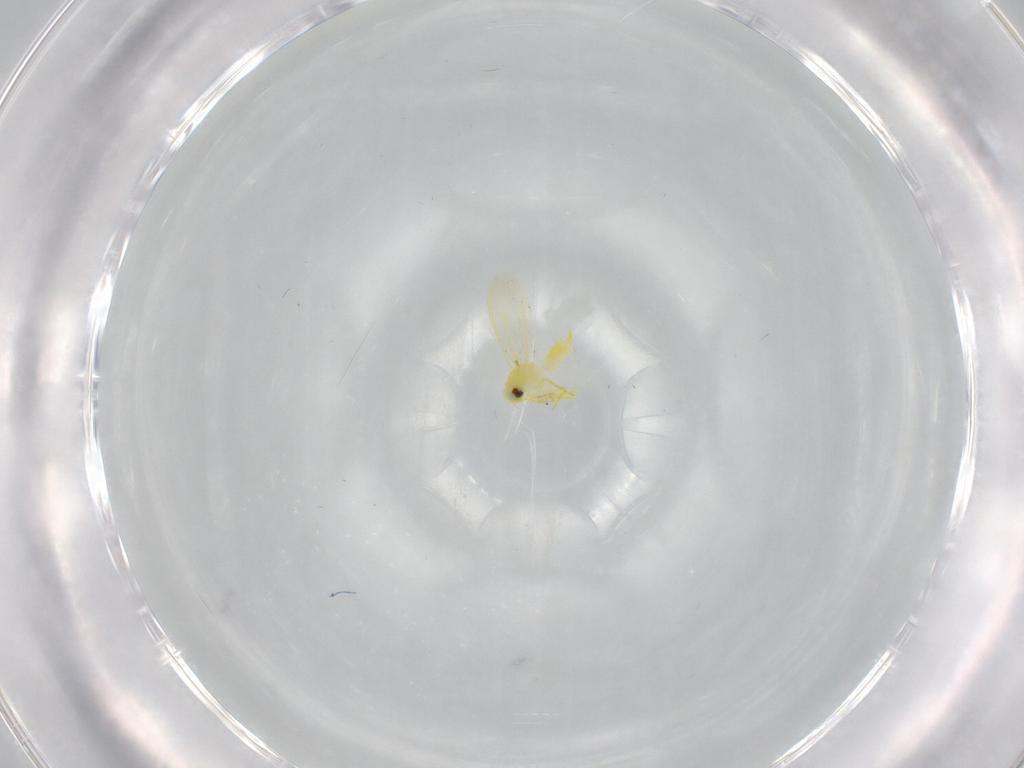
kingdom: Animalia
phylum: Arthropoda
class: Insecta
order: Hemiptera
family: Aleyrodidae
